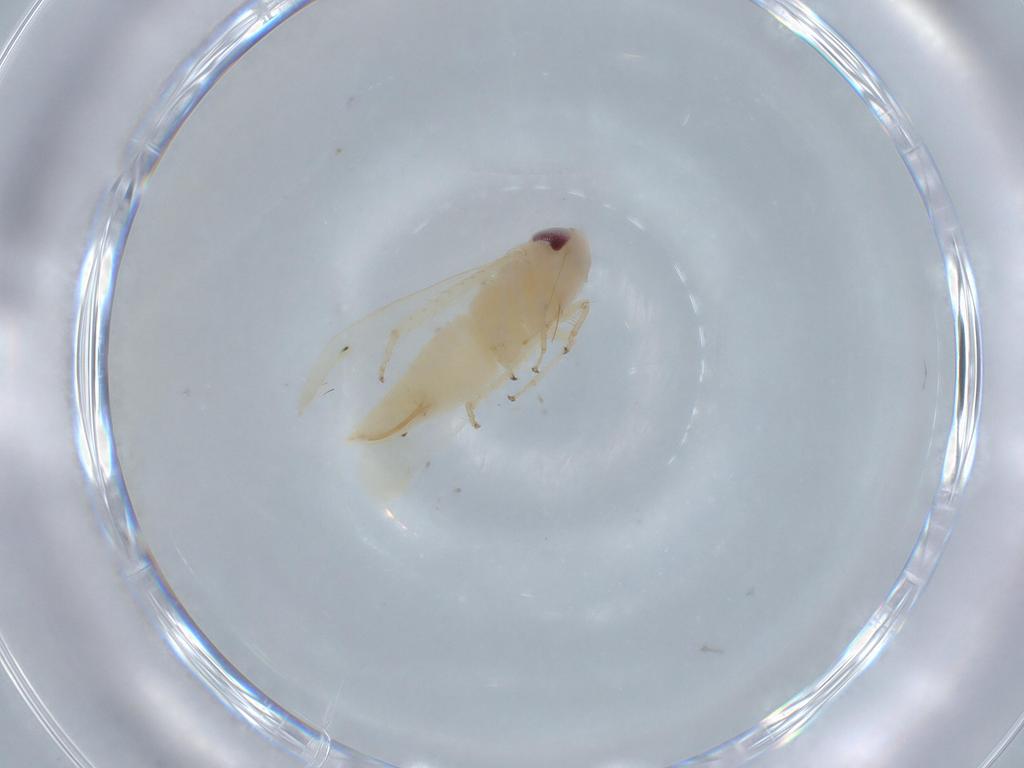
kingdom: Animalia
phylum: Arthropoda
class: Insecta
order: Hemiptera
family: Cicadellidae
